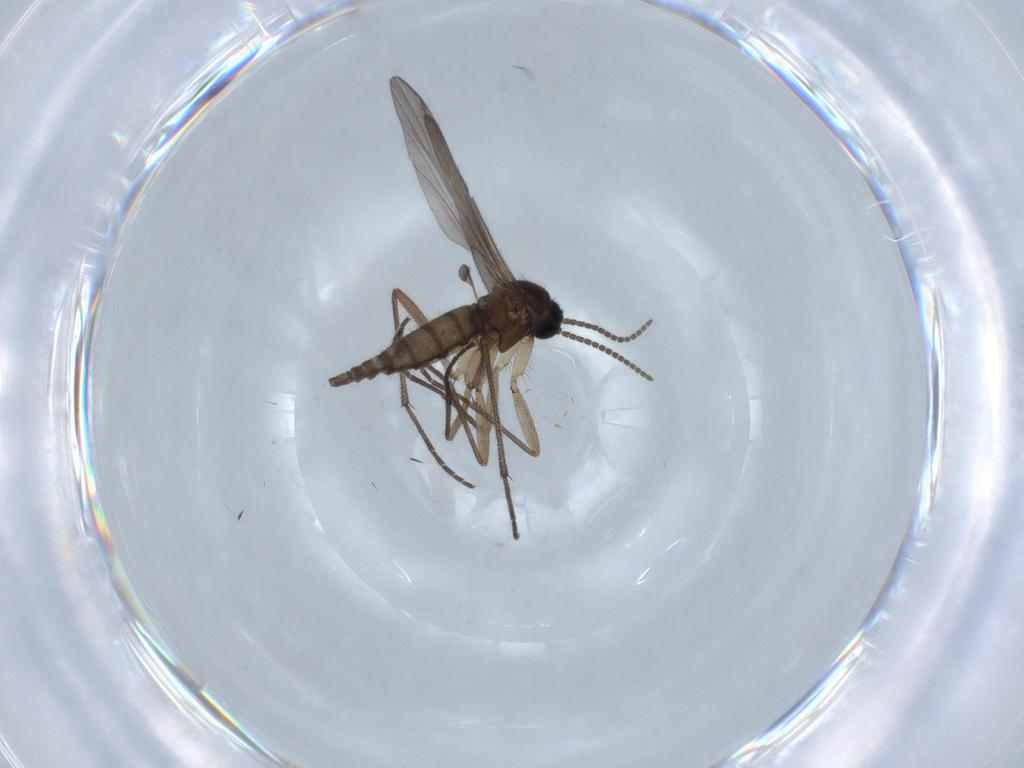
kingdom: Animalia
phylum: Arthropoda
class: Insecta
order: Diptera
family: Sciaridae
